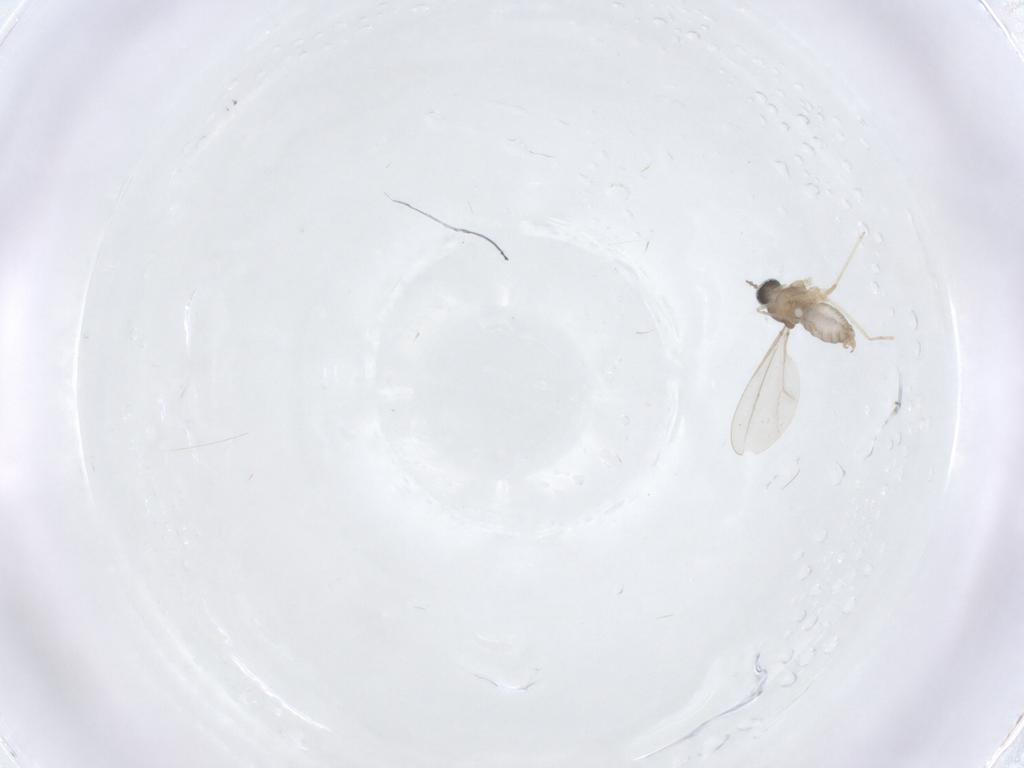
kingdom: Animalia
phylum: Arthropoda
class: Insecta
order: Diptera
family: Cecidomyiidae
